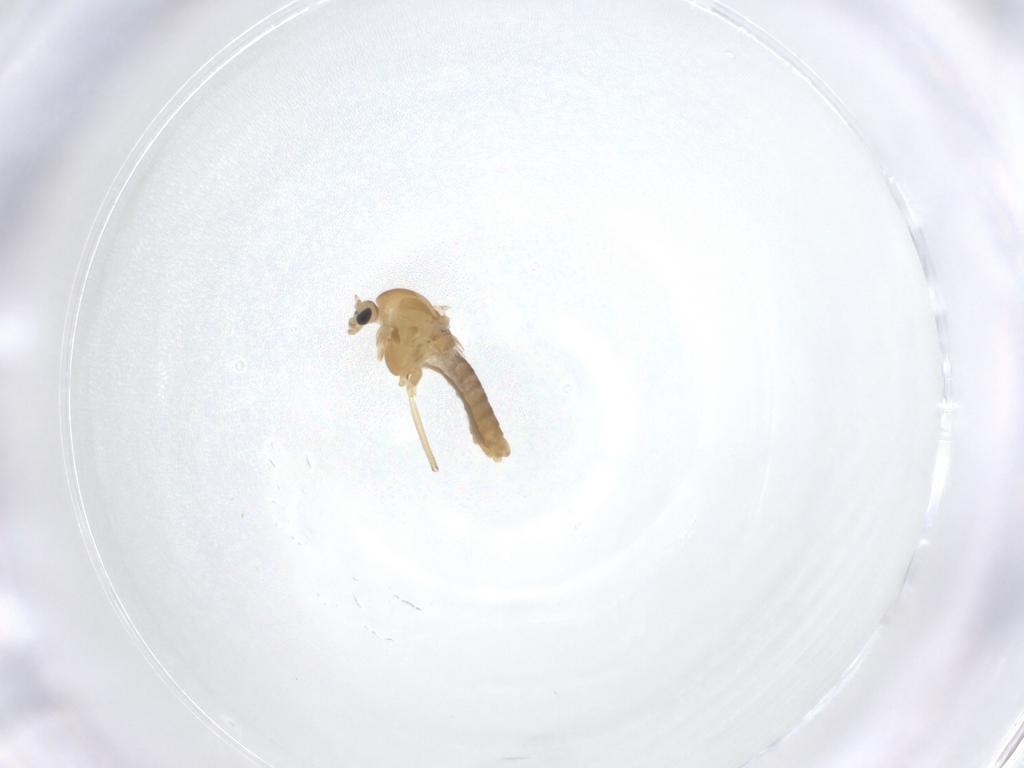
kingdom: Animalia
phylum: Arthropoda
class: Insecta
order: Diptera
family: Chironomidae
